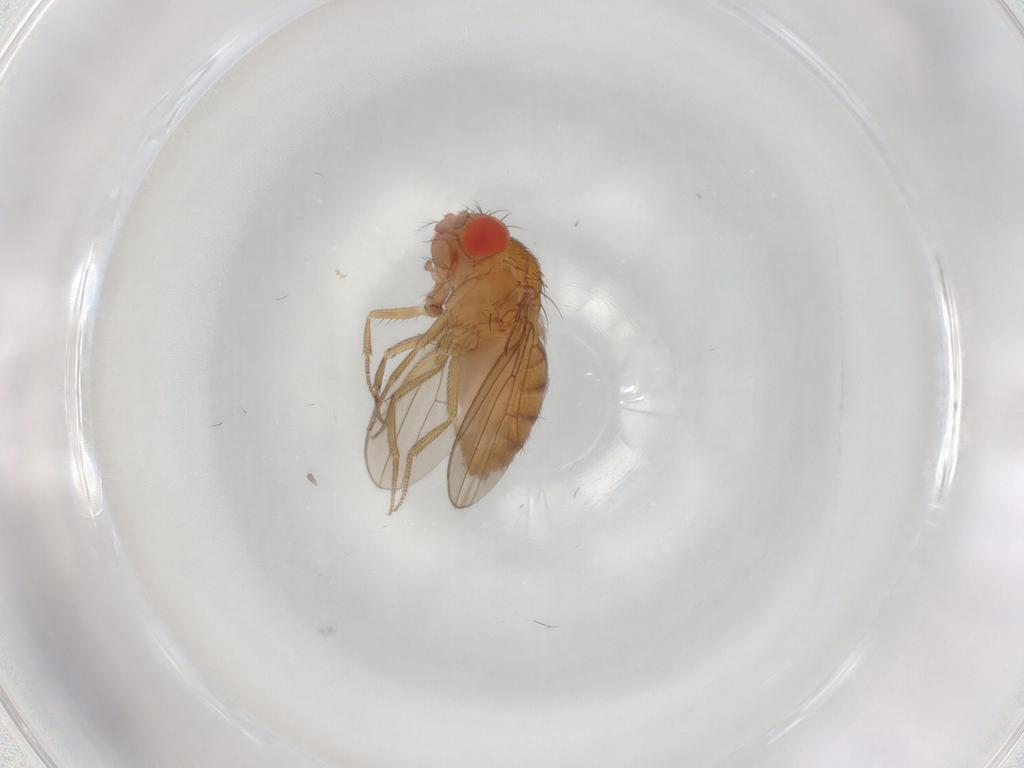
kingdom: Animalia
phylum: Arthropoda
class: Insecta
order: Diptera
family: Drosophilidae
